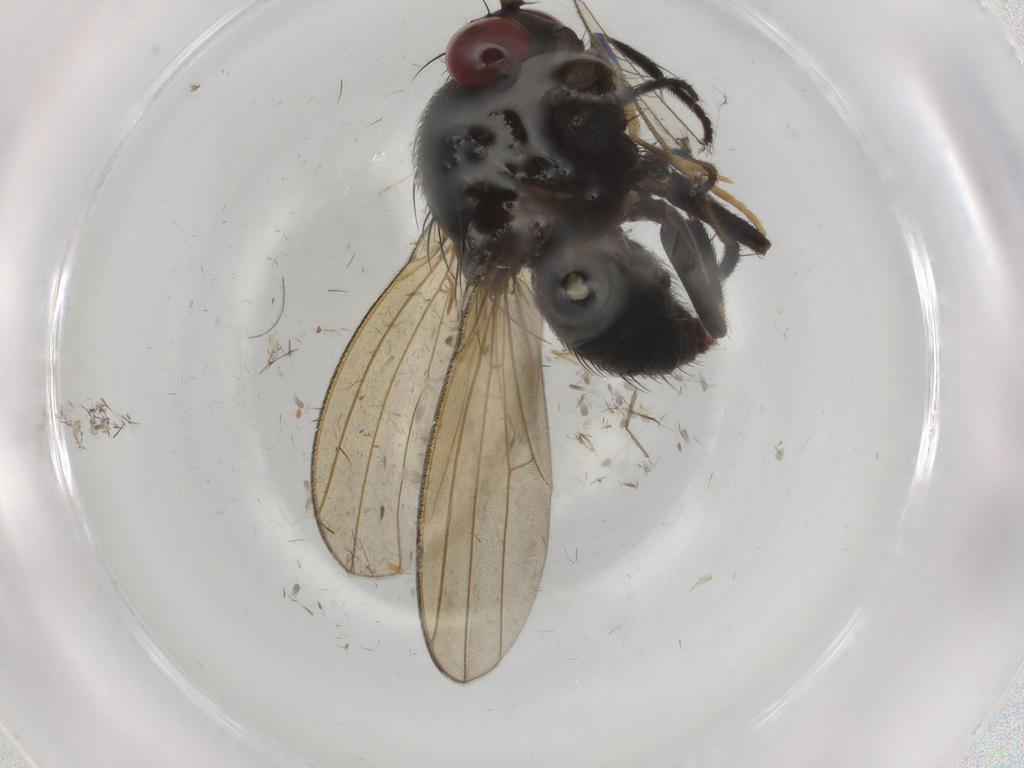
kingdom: Animalia
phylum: Arthropoda
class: Insecta
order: Diptera
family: Limoniidae
